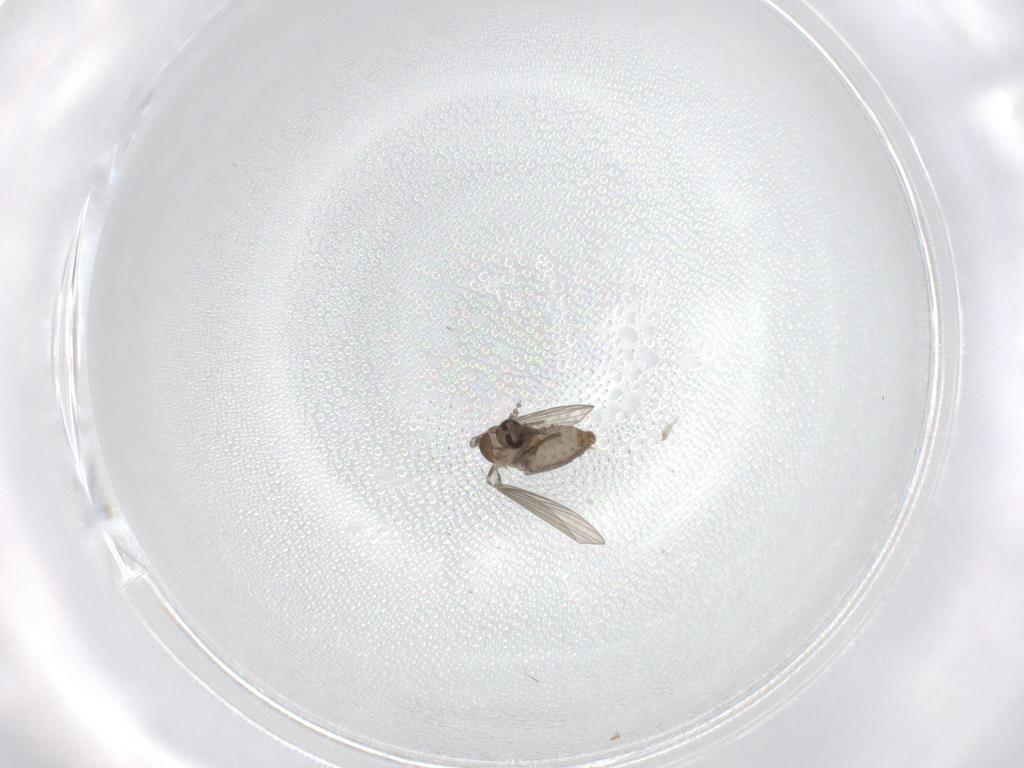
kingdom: Animalia
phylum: Arthropoda
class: Insecta
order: Diptera
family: Psychodidae
